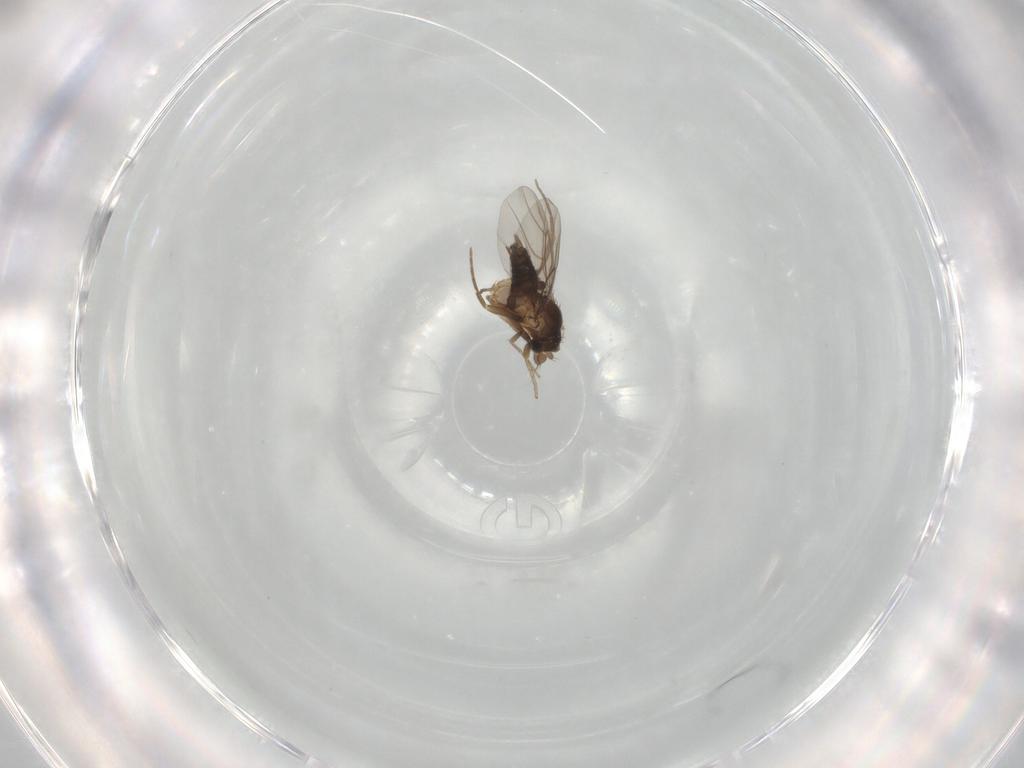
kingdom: Animalia
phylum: Arthropoda
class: Insecta
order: Diptera
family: Phoridae
